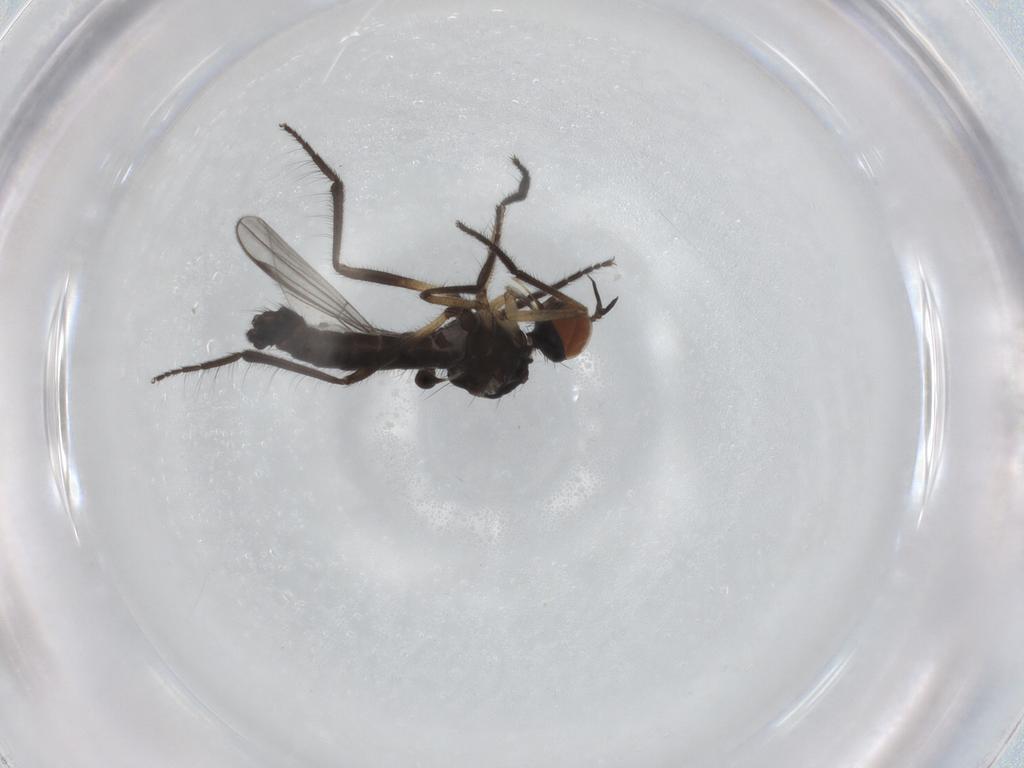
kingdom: Animalia
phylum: Arthropoda
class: Insecta
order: Diptera
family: Empididae
